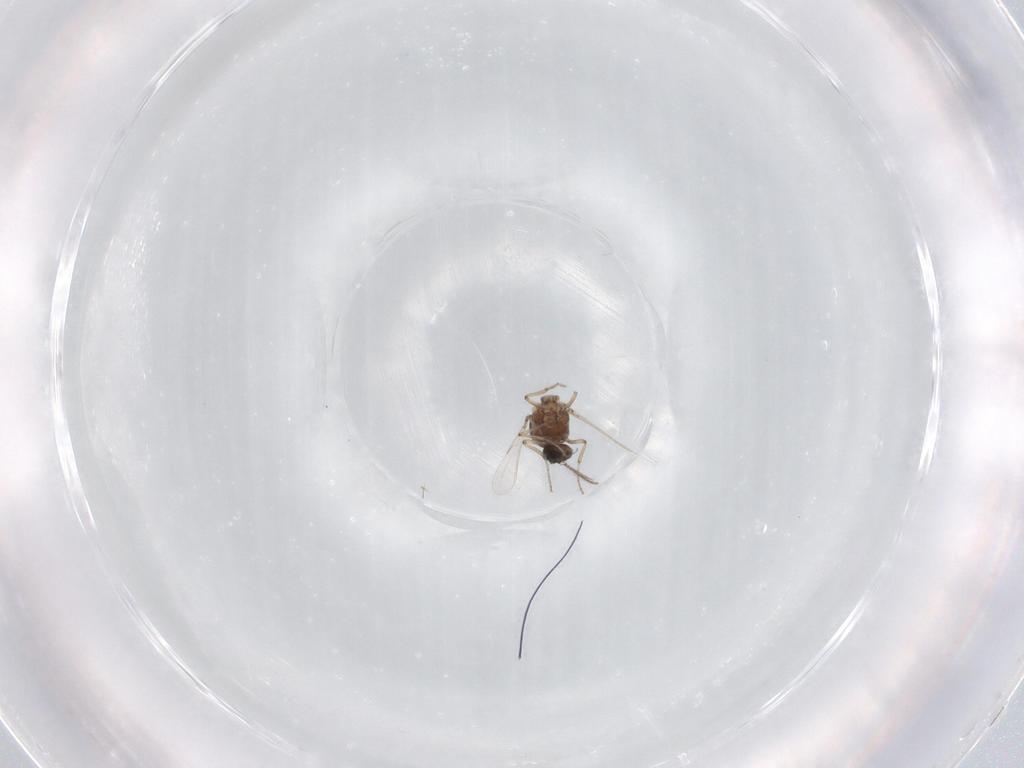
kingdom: Animalia
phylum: Arthropoda
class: Insecta
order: Diptera
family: Ceratopogonidae
